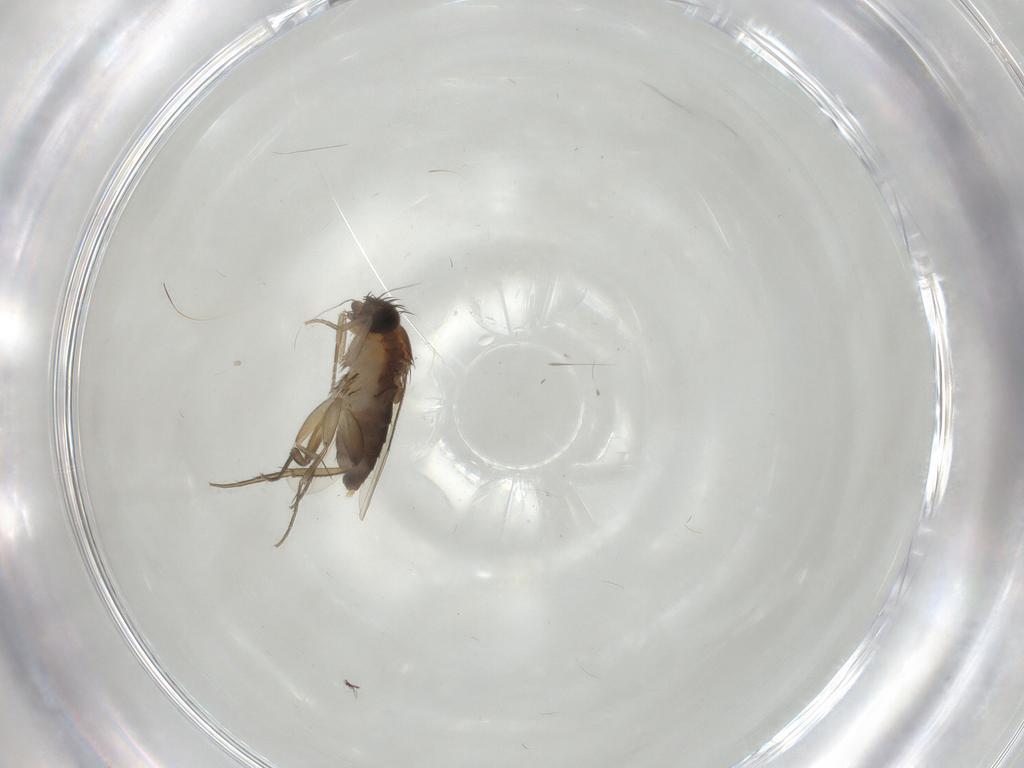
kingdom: Animalia
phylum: Arthropoda
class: Insecta
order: Diptera
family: Phoridae
